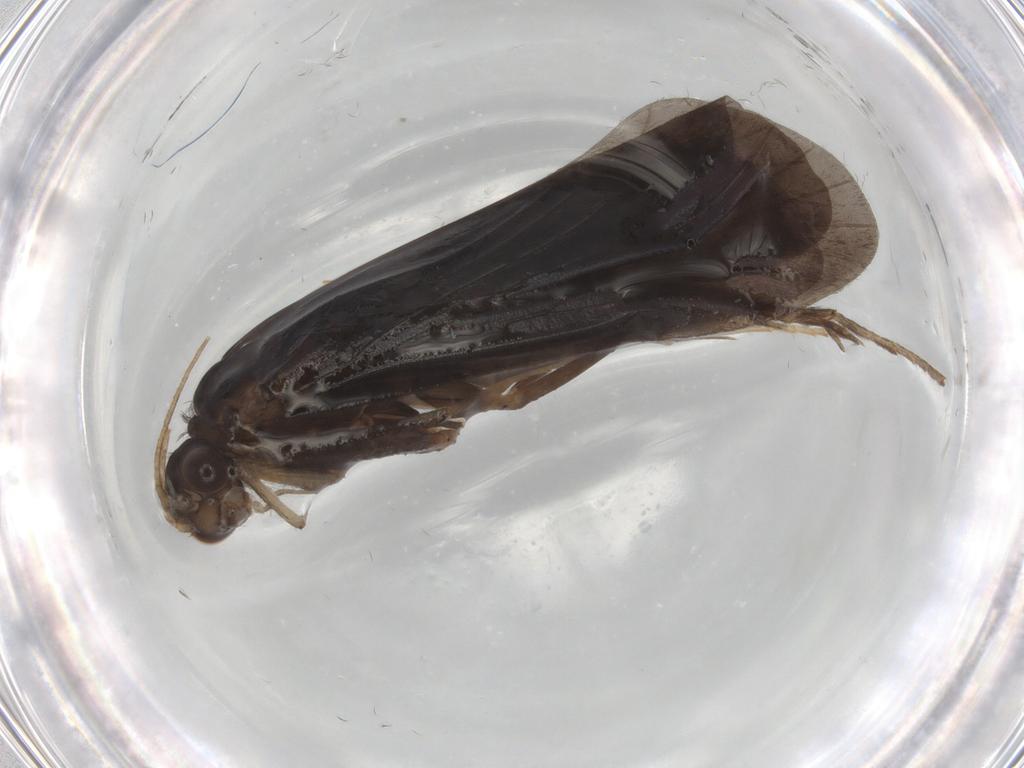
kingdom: Animalia
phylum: Arthropoda
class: Insecta
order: Trichoptera
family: Hydropsychidae
